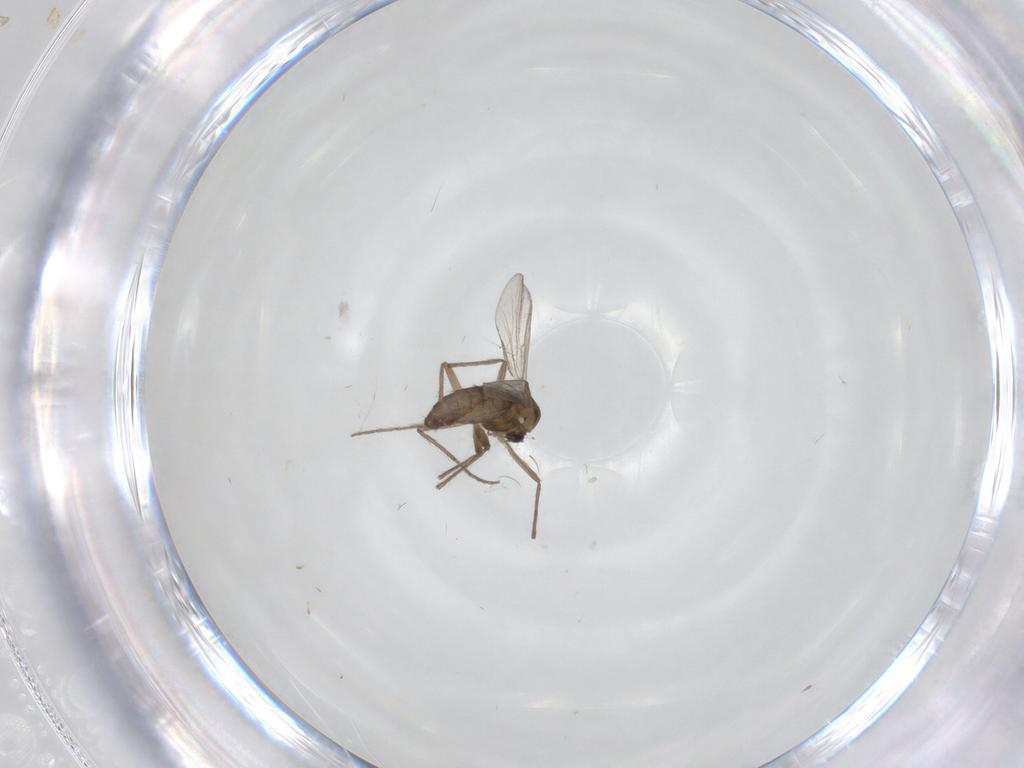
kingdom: Animalia
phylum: Arthropoda
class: Insecta
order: Diptera
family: Chironomidae
